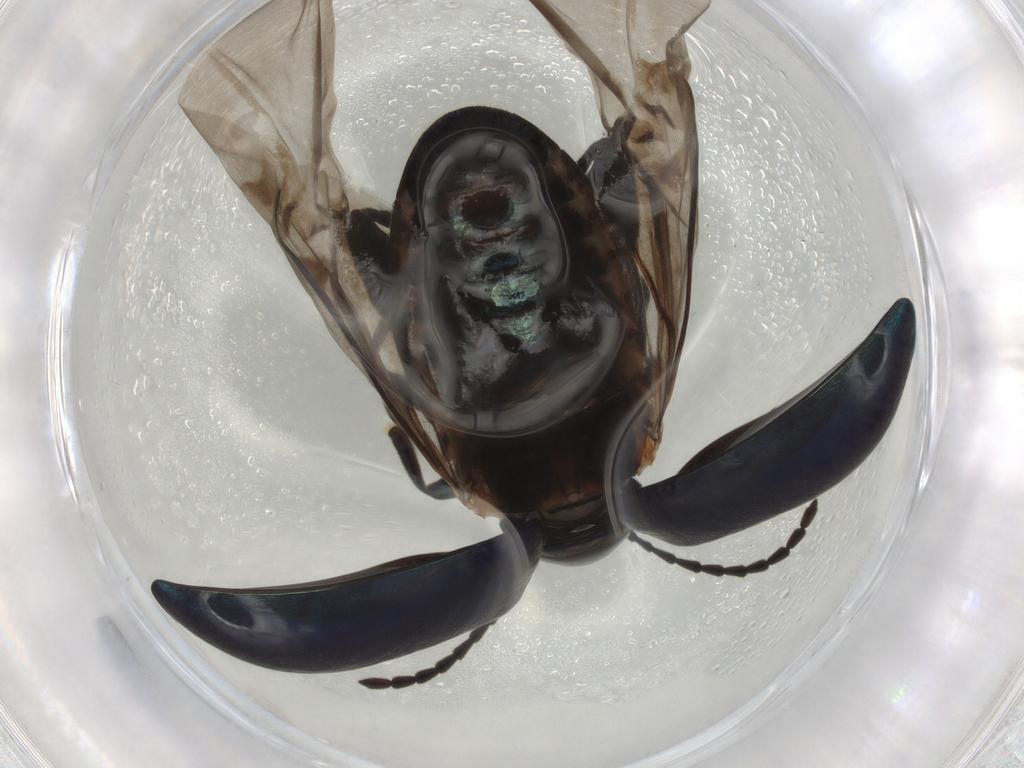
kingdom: Animalia
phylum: Arthropoda
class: Insecta
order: Coleoptera
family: Chrysomelidae
